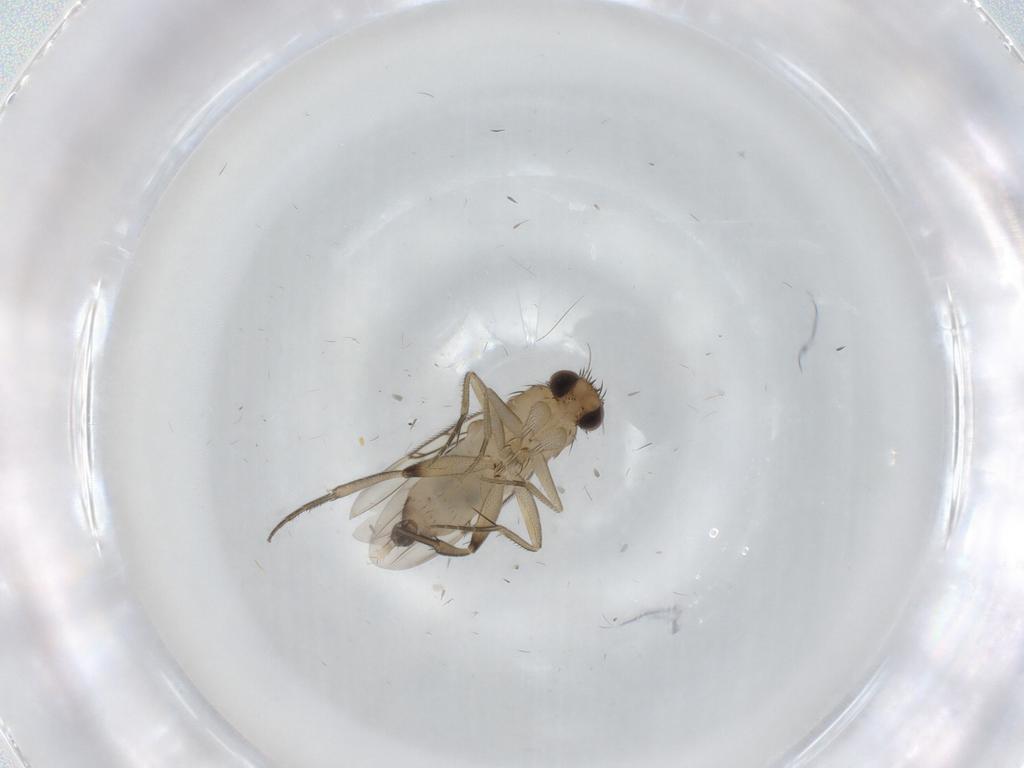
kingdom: Animalia
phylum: Arthropoda
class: Insecta
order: Diptera
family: Phoridae
